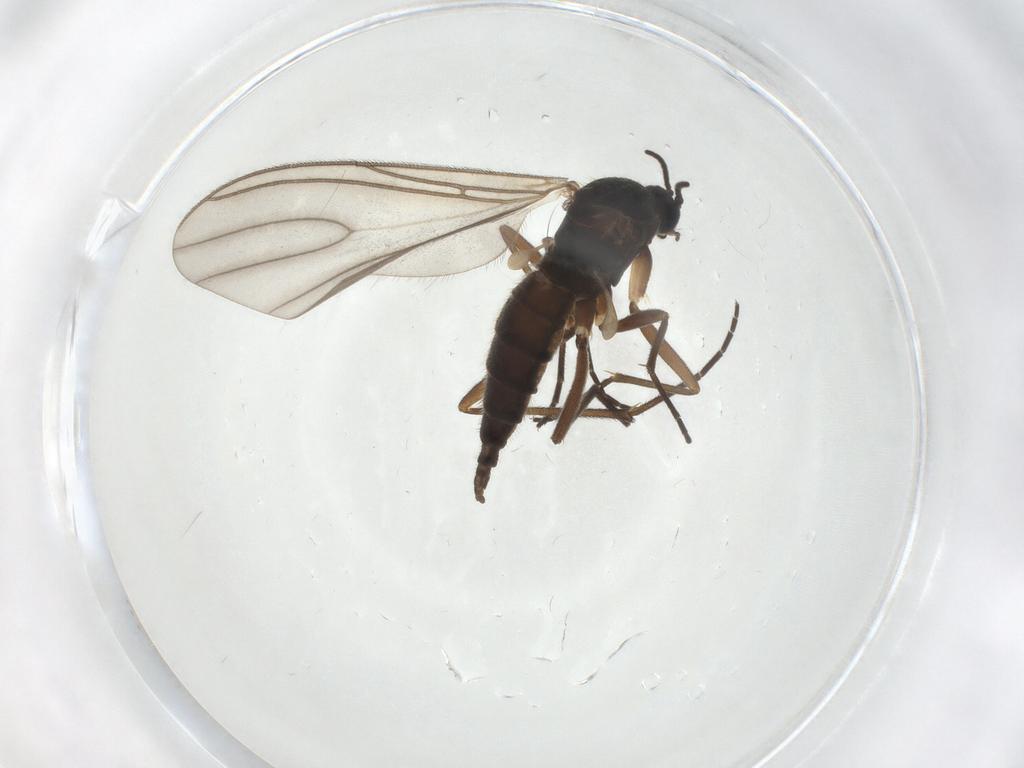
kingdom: Animalia
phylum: Arthropoda
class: Insecta
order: Diptera
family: Sciaridae
